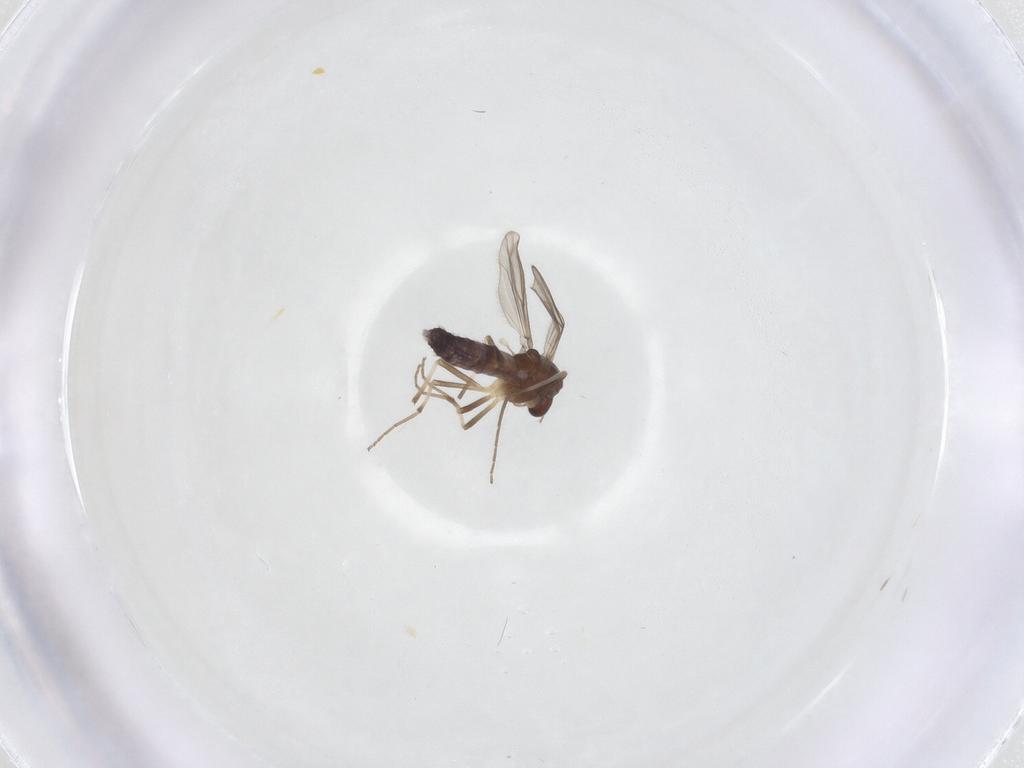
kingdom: Animalia
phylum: Arthropoda
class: Insecta
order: Diptera
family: Chironomidae
